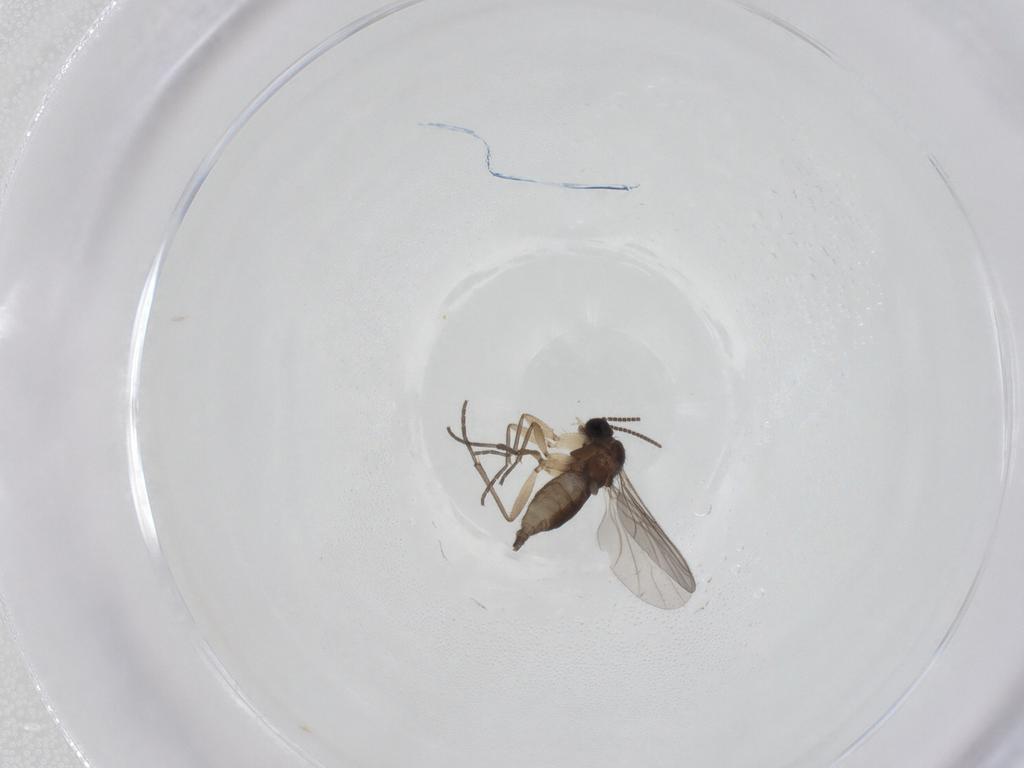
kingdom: Animalia
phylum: Arthropoda
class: Insecta
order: Diptera
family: Sciaridae
